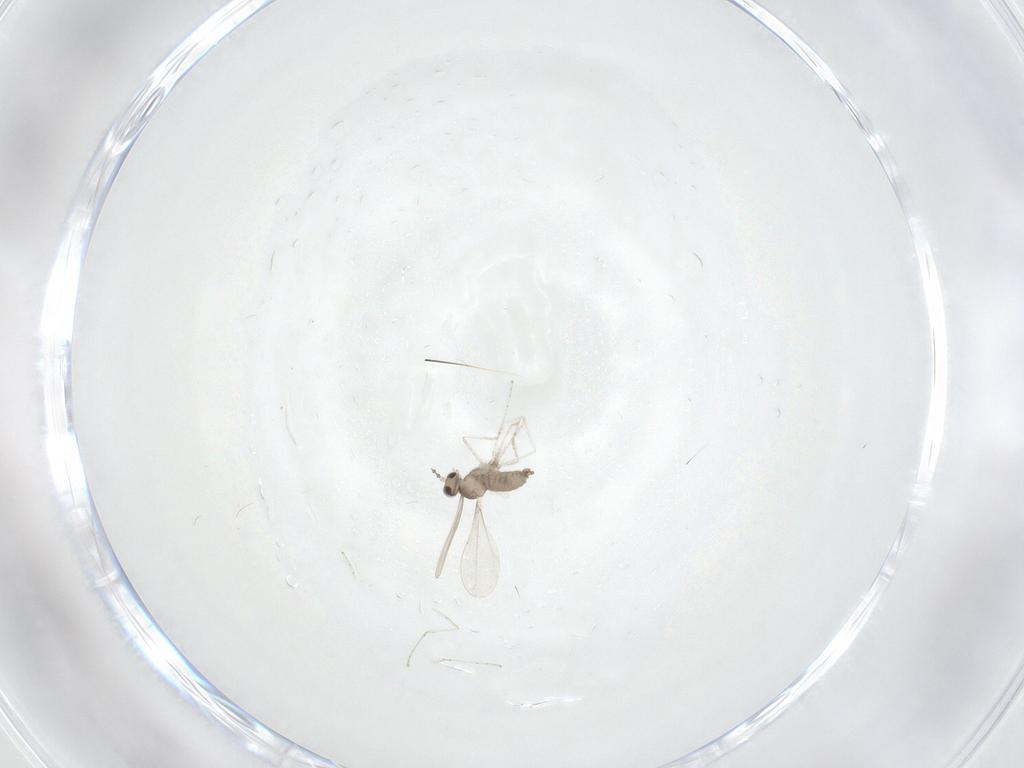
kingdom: Animalia
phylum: Arthropoda
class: Insecta
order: Diptera
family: Cecidomyiidae
